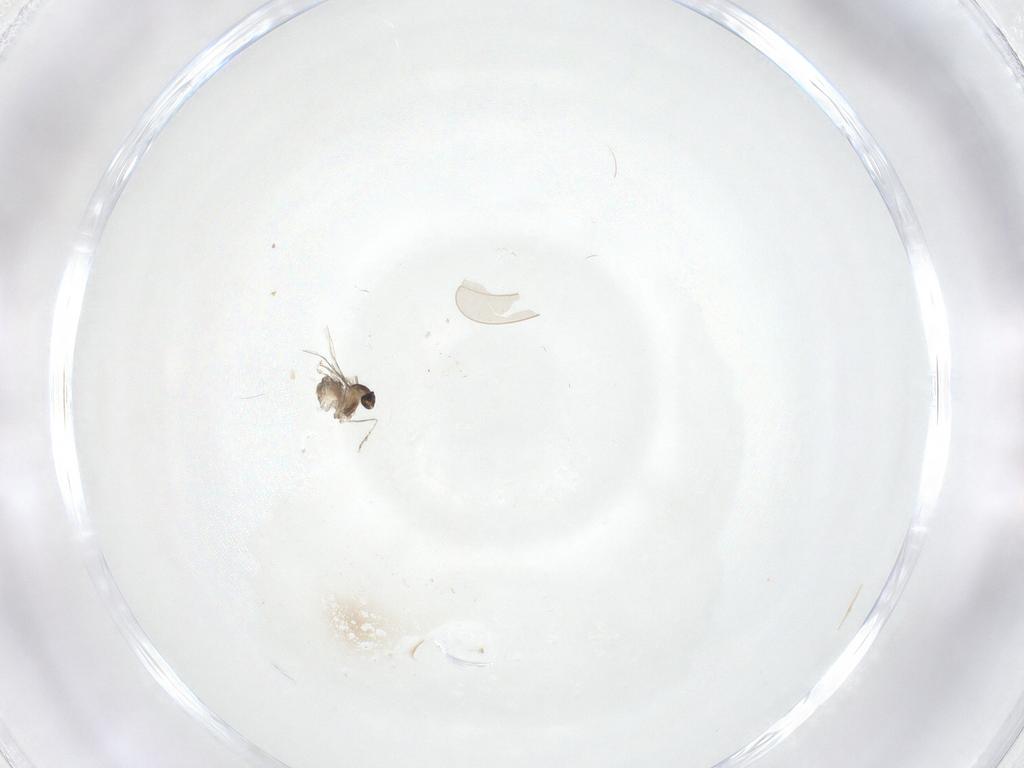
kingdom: Animalia
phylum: Arthropoda
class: Insecta
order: Diptera
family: Cecidomyiidae
